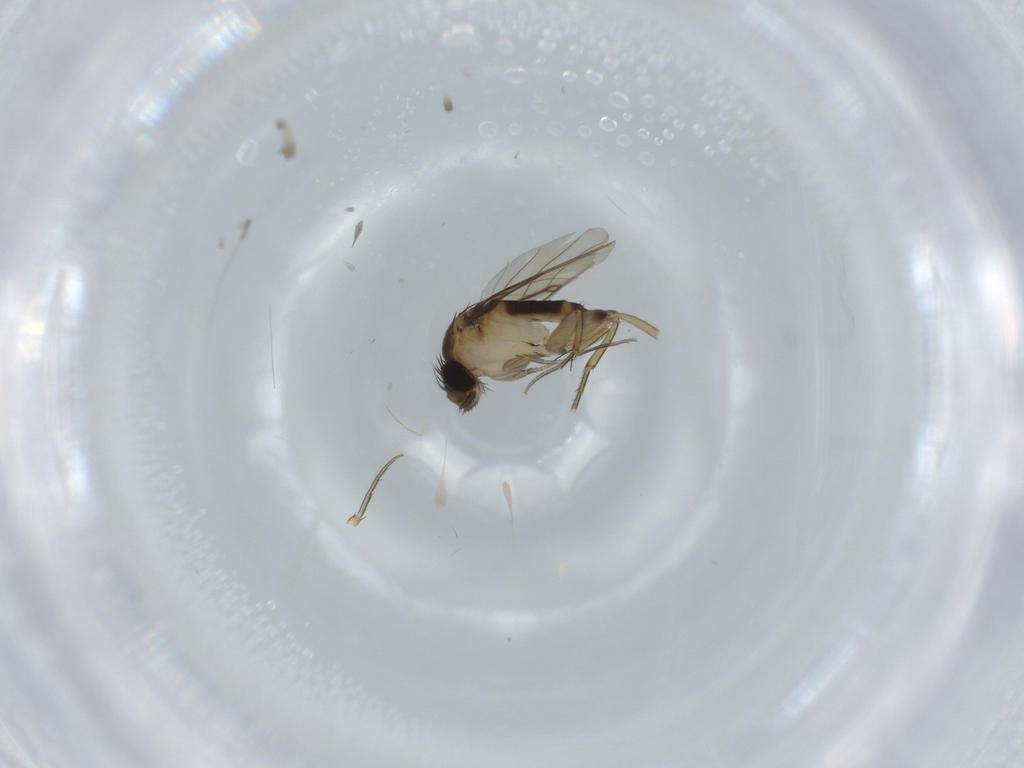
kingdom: Animalia
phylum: Arthropoda
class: Insecta
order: Diptera
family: Phoridae
